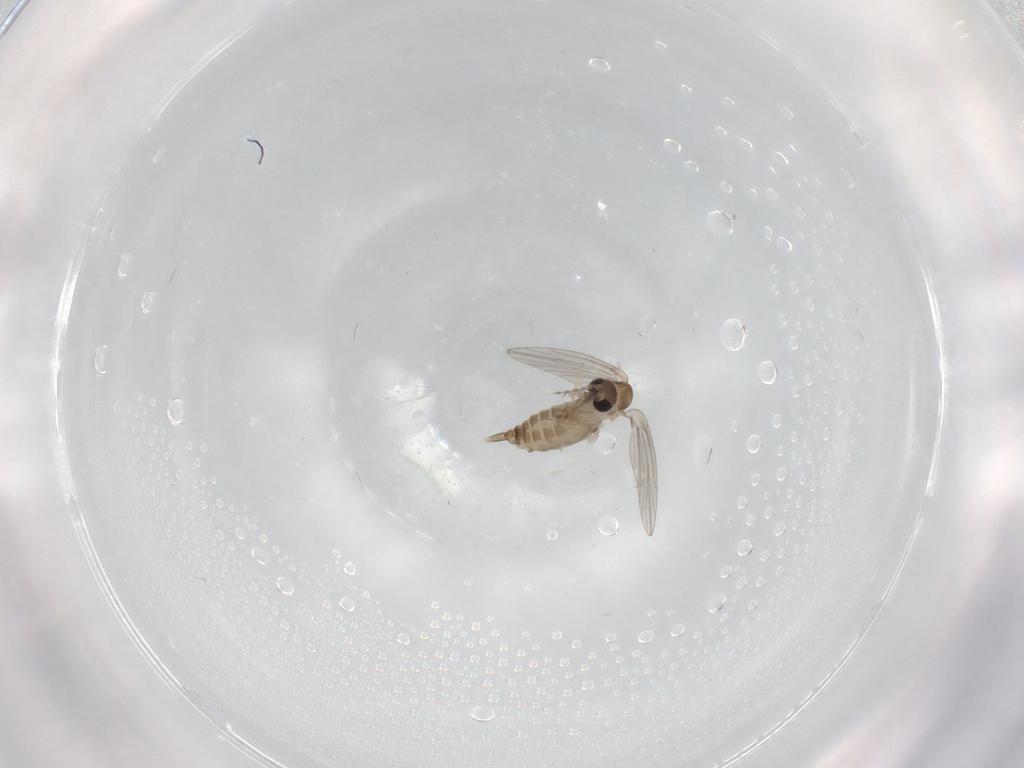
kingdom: Animalia
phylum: Arthropoda
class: Insecta
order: Diptera
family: Chironomidae
